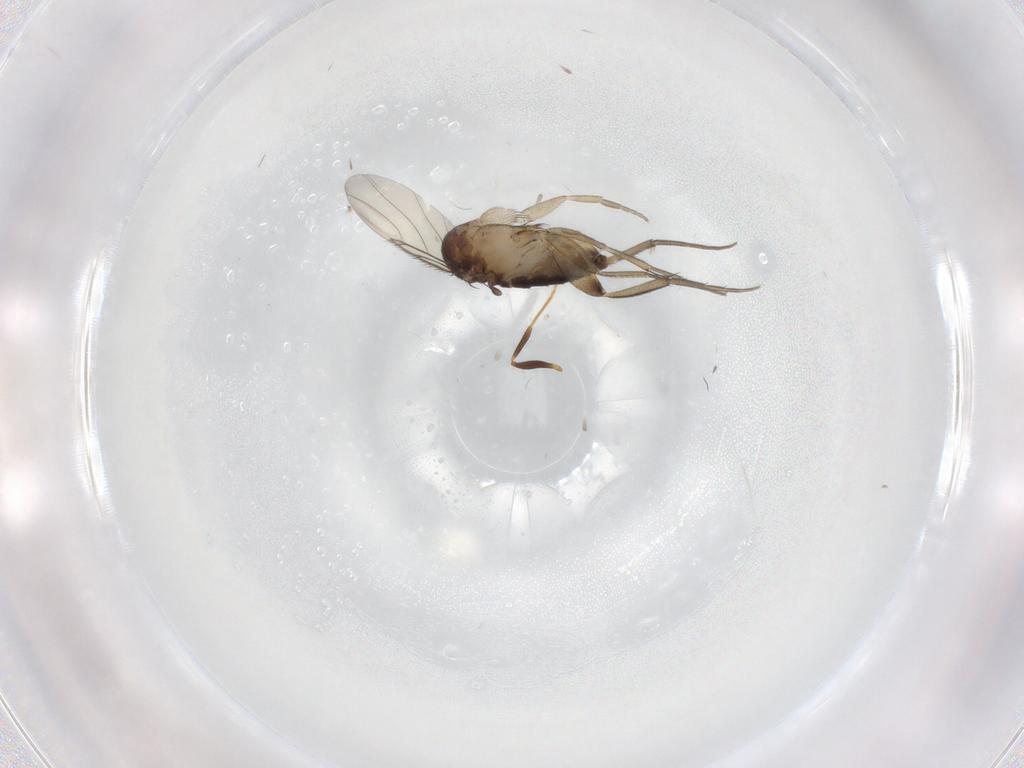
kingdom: Animalia
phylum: Arthropoda
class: Insecta
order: Diptera
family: Phoridae
